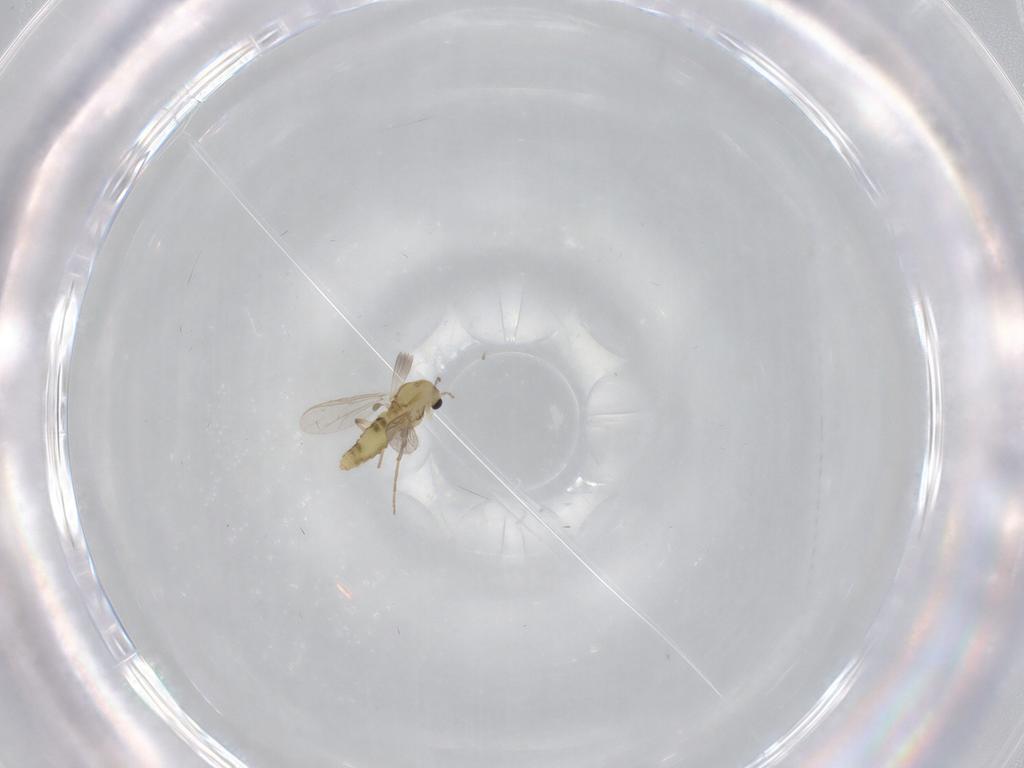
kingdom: Animalia
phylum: Arthropoda
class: Insecta
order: Diptera
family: Chironomidae
